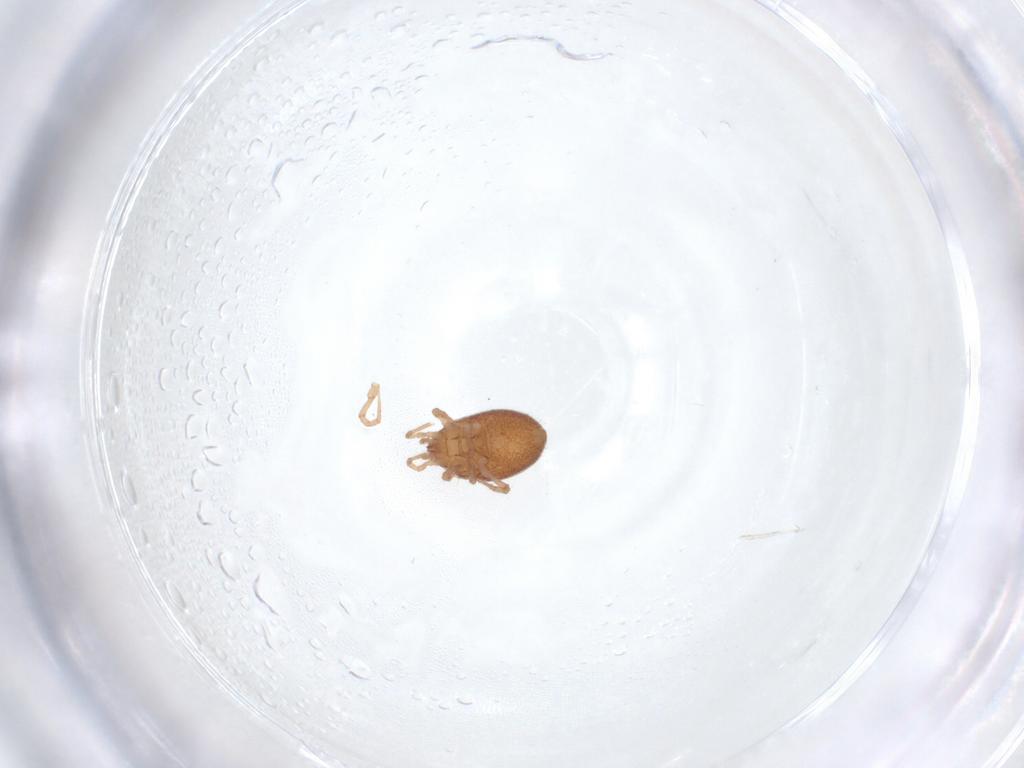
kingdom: Animalia
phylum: Arthropoda
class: Arachnida
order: Mesostigmata
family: Parasitidae
